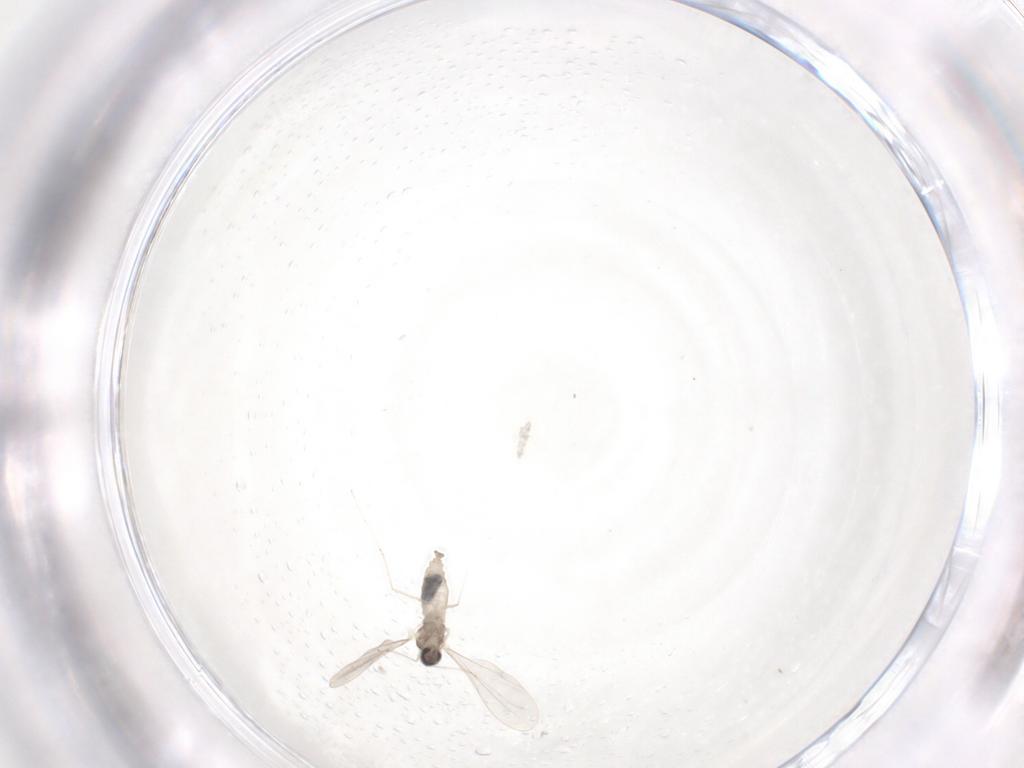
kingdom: Animalia
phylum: Arthropoda
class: Insecta
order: Diptera
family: Cecidomyiidae
